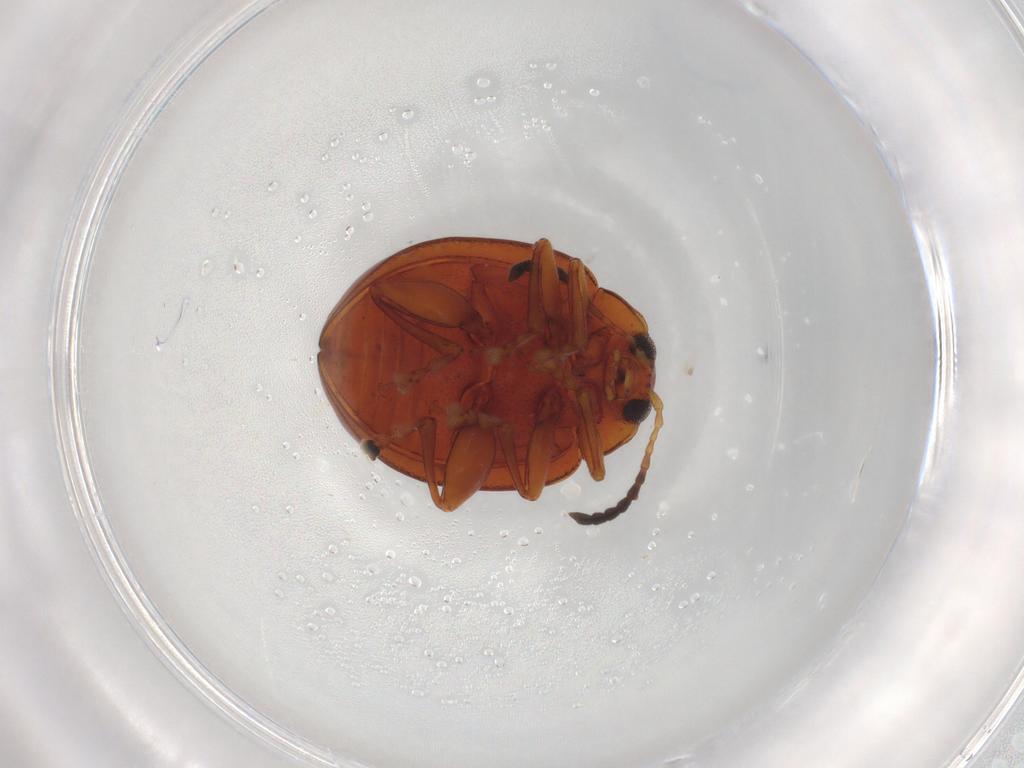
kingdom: Animalia
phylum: Arthropoda
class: Insecta
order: Coleoptera
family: Chrysomelidae
